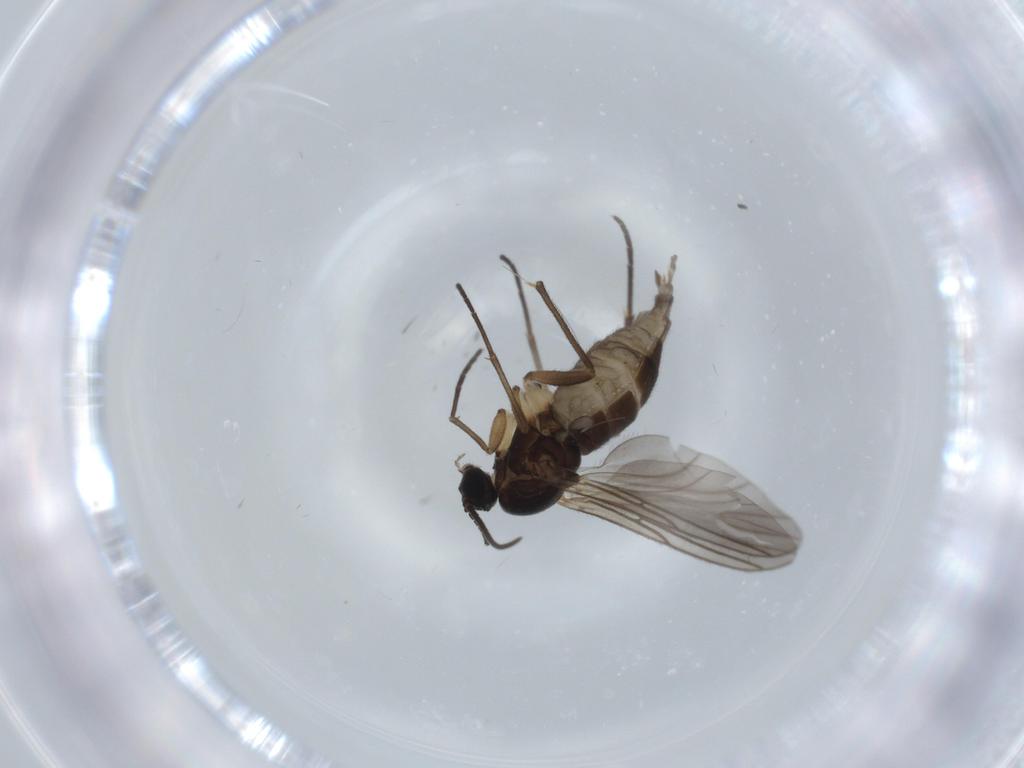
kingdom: Animalia
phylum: Arthropoda
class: Insecta
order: Diptera
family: Sciaridae
